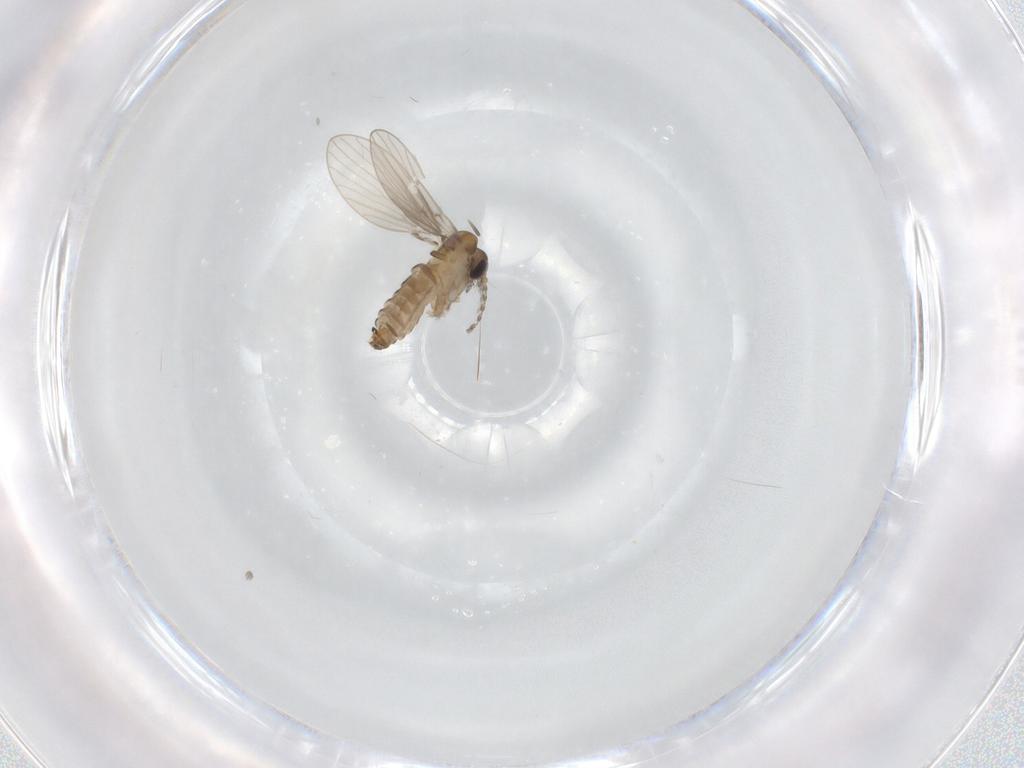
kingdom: Animalia
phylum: Arthropoda
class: Insecta
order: Diptera
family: Psychodidae
